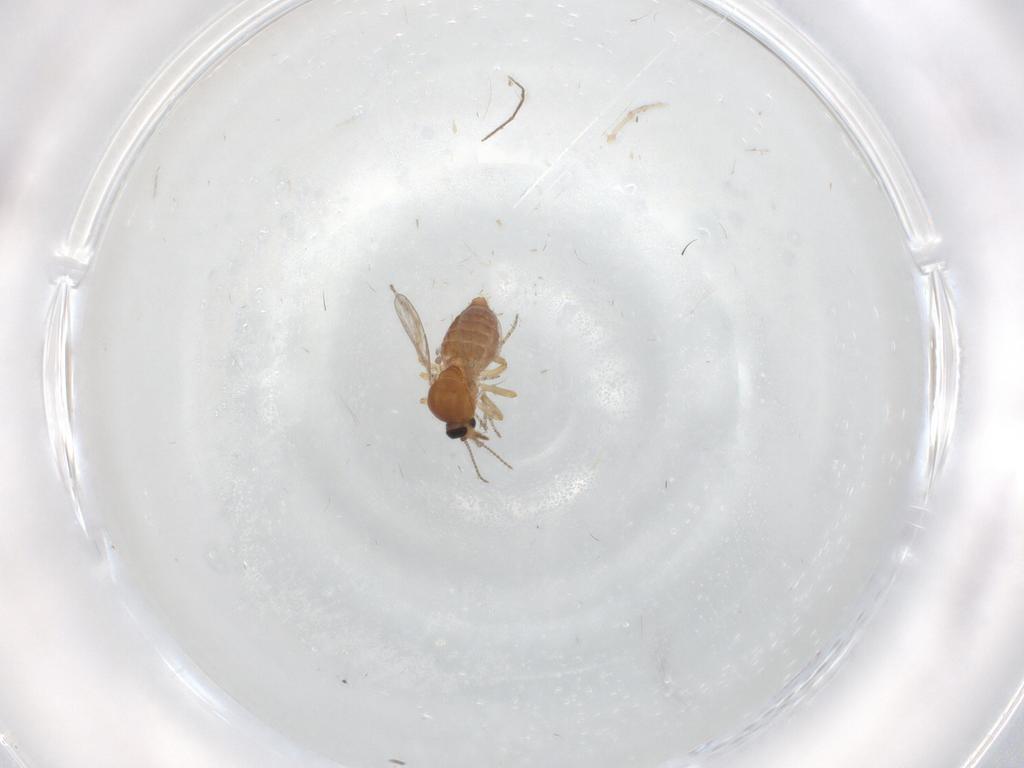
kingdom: Animalia
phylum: Arthropoda
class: Insecta
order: Diptera
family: Ceratopogonidae
